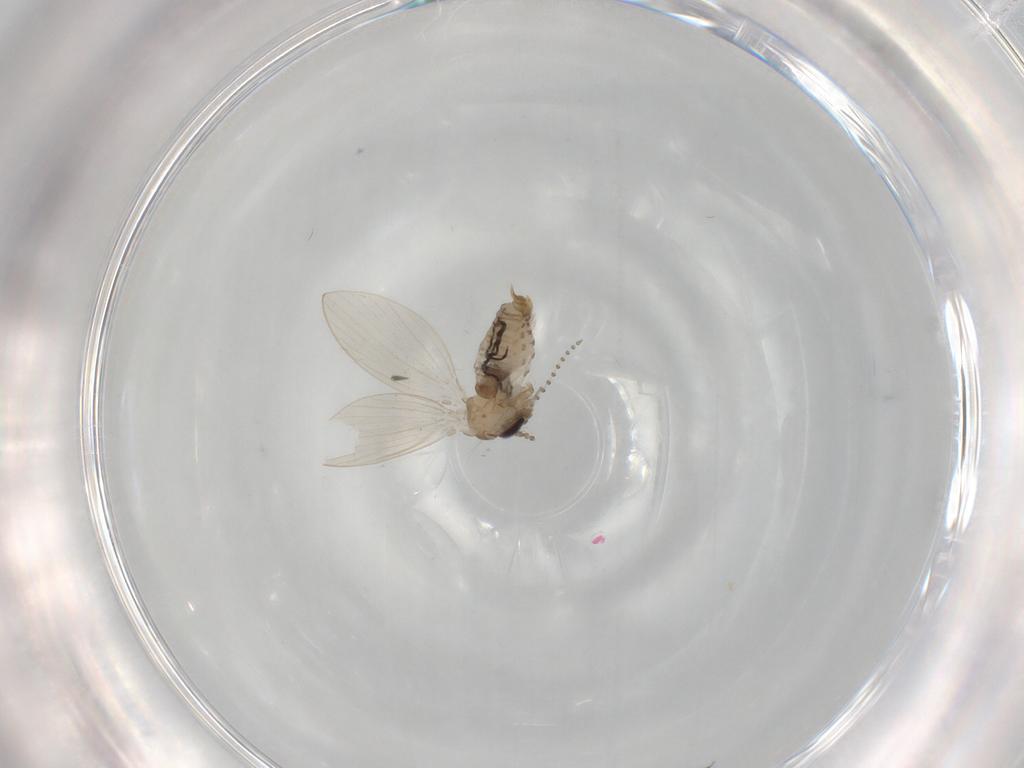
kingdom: Animalia
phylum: Arthropoda
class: Insecta
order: Diptera
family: Psychodidae
